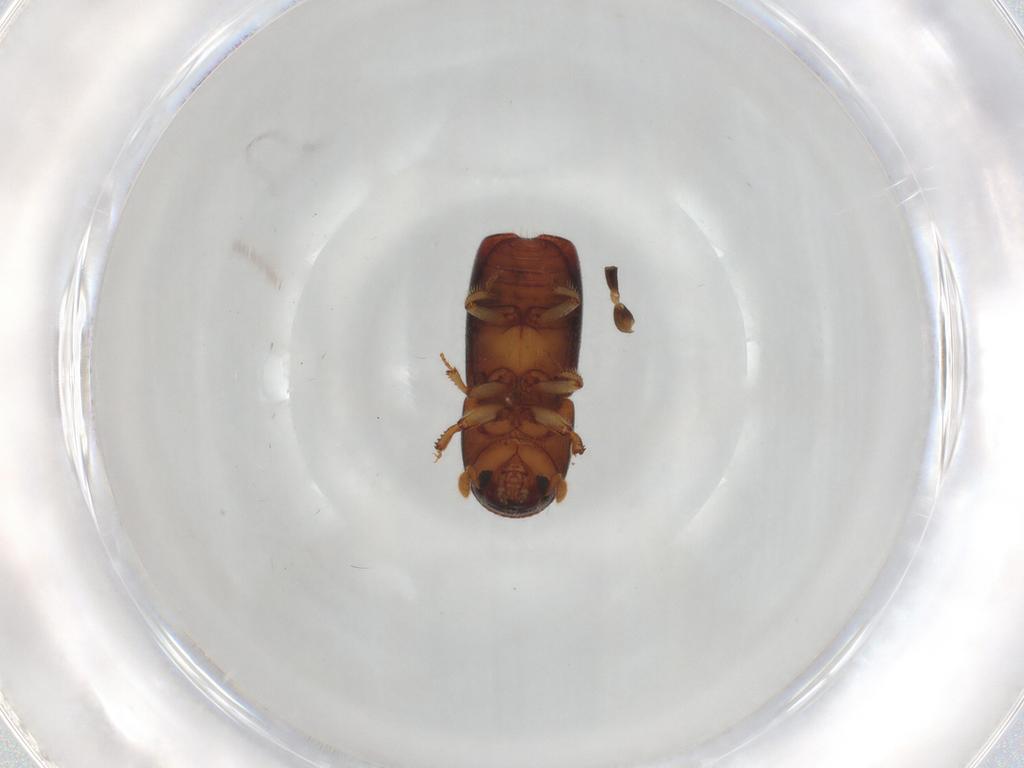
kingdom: Animalia
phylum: Arthropoda
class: Insecta
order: Coleoptera
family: Curculionidae
